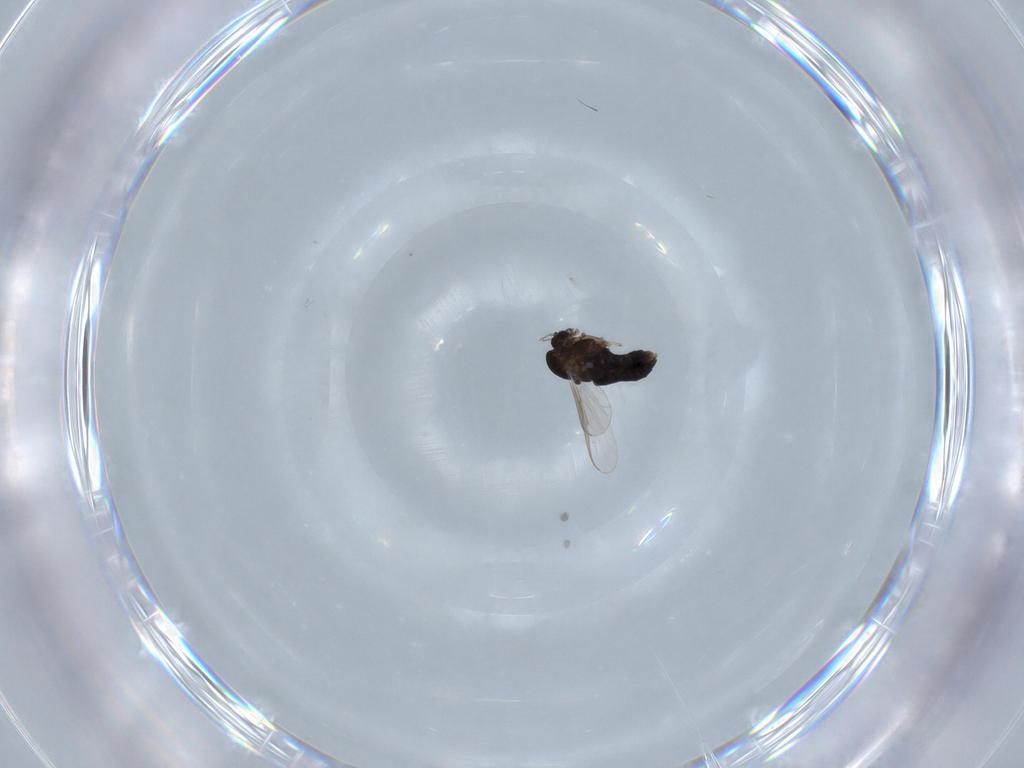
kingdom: Animalia
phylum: Arthropoda
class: Insecta
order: Diptera
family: Chironomidae
